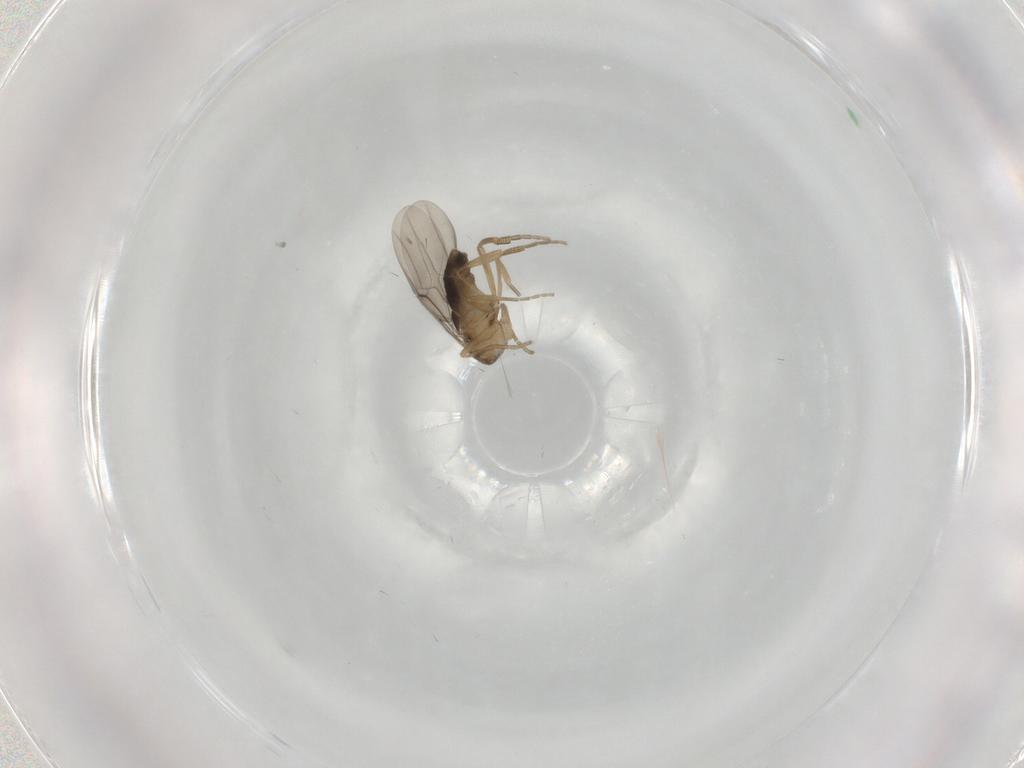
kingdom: Animalia
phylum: Arthropoda
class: Insecta
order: Diptera
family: Phoridae
